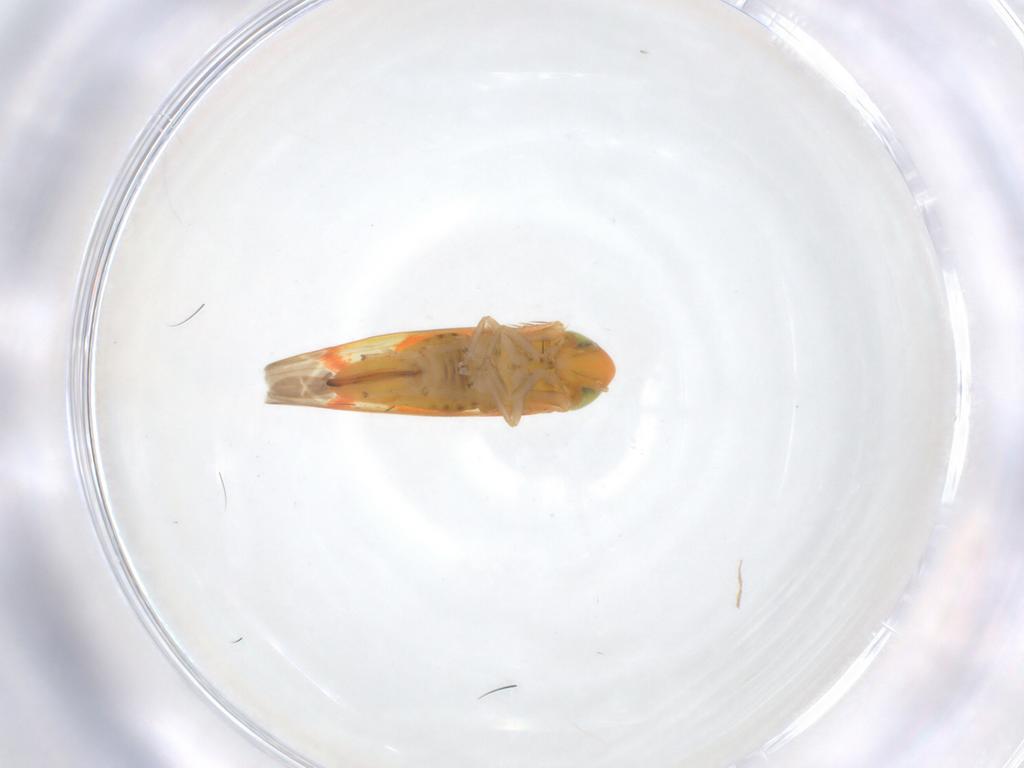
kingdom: Animalia
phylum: Arthropoda
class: Insecta
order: Hemiptera
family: Cicadellidae
